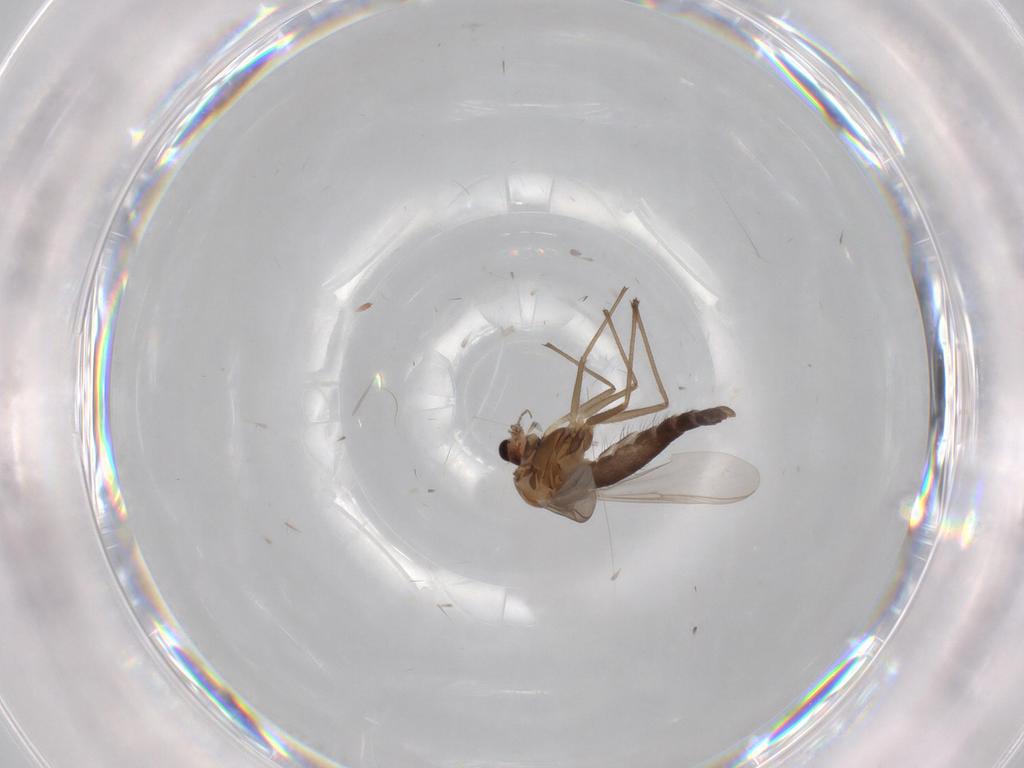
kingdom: Animalia
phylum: Arthropoda
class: Insecta
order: Diptera
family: Chironomidae
